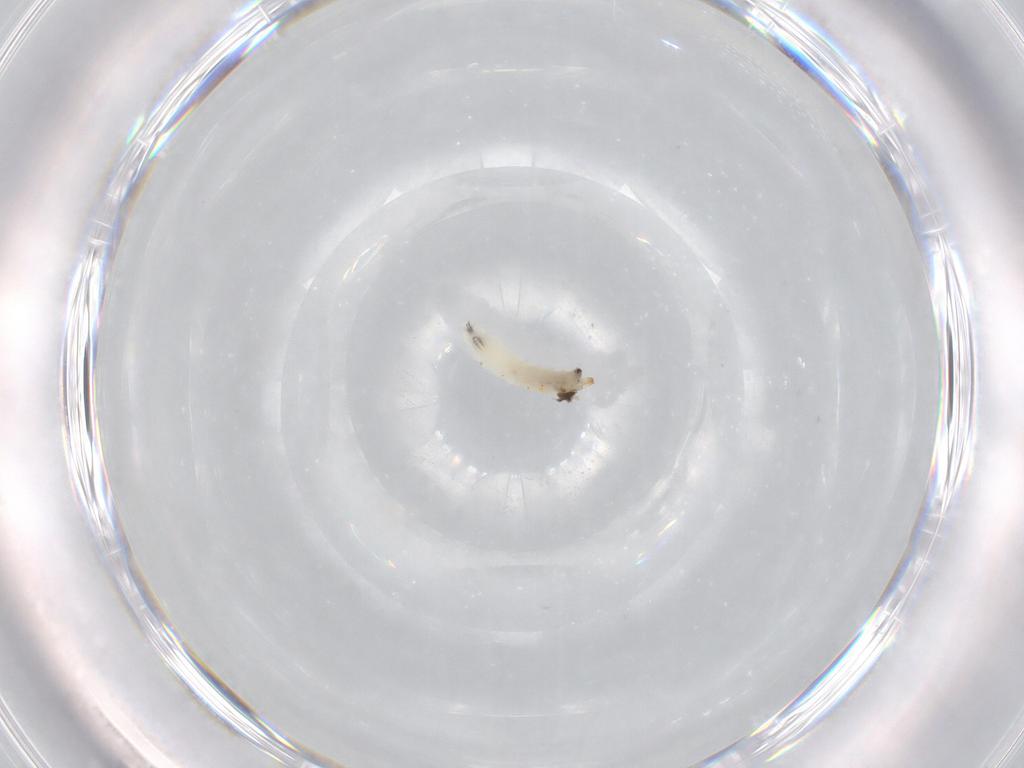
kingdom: Animalia
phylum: Arthropoda
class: Insecta
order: Diptera
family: Drosophilidae
